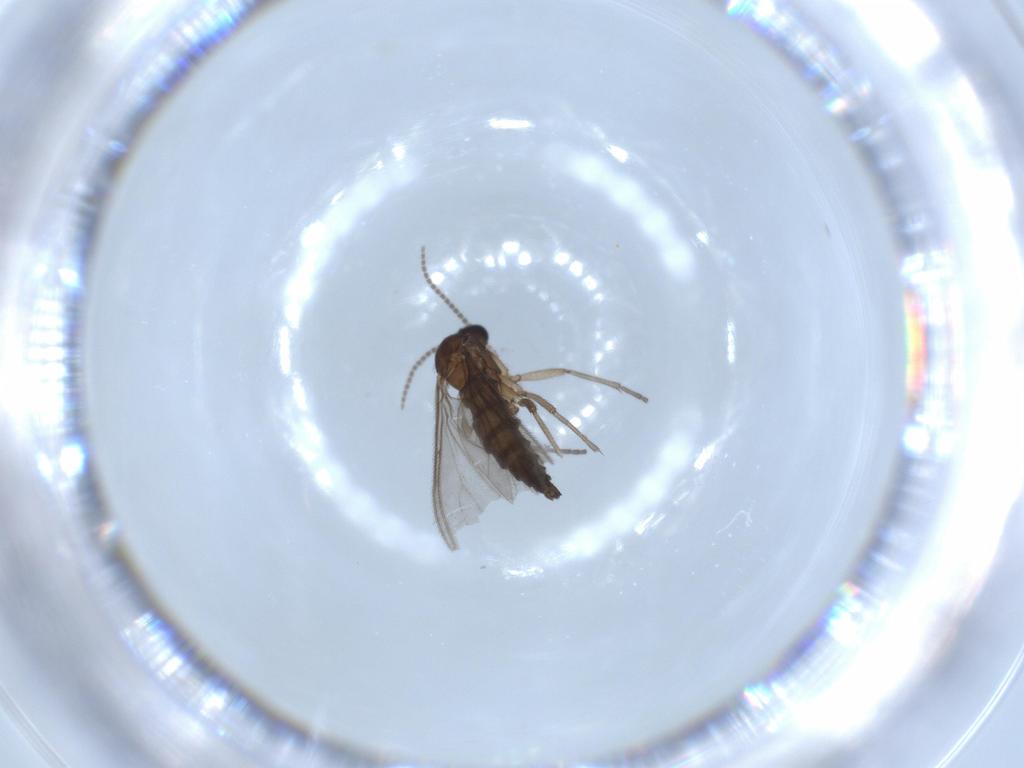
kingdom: Animalia
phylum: Arthropoda
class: Insecta
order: Diptera
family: Sciaridae
